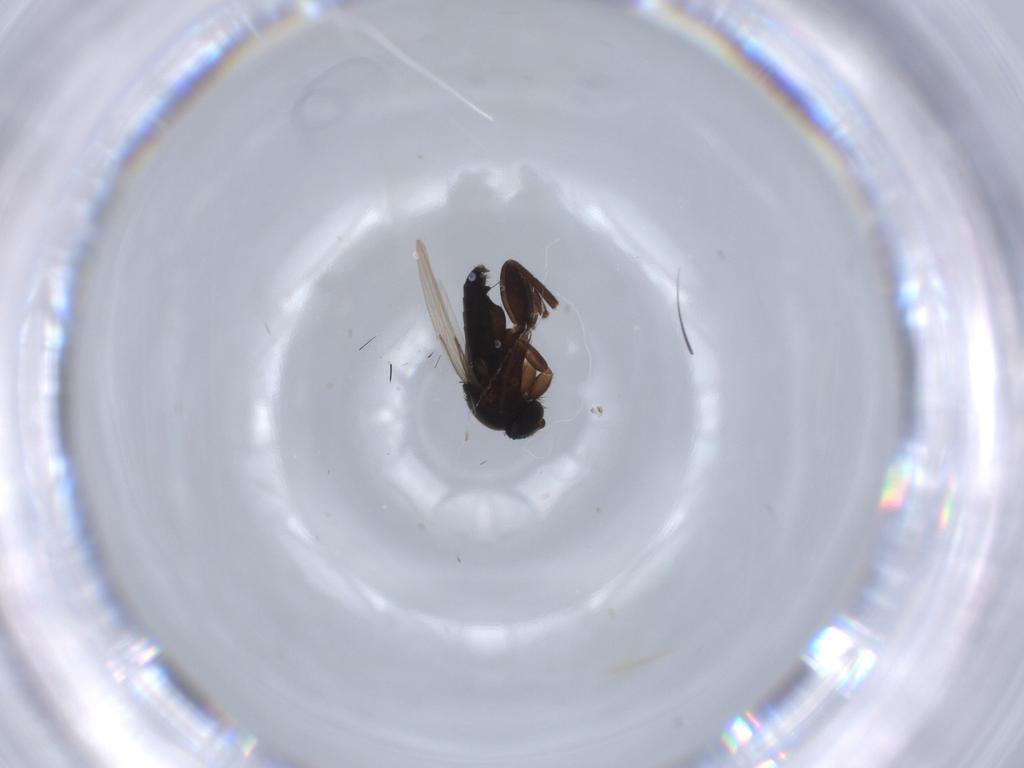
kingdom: Animalia
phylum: Arthropoda
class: Insecta
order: Diptera
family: Phoridae
